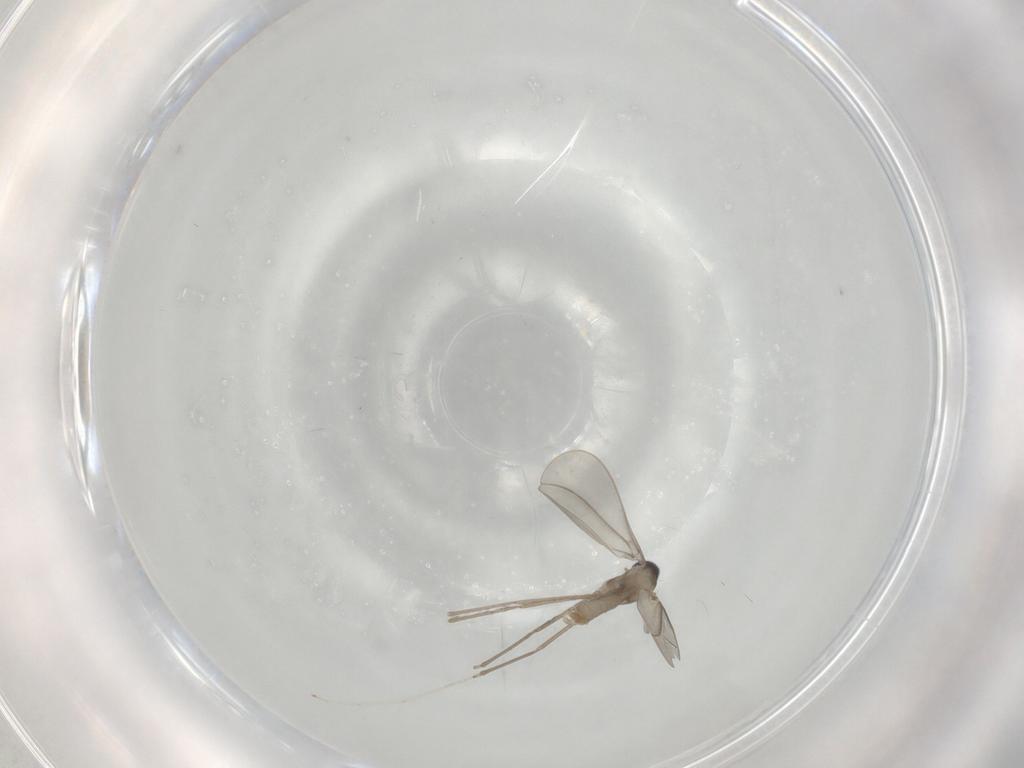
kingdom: Animalia
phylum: Arthropoda
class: Insecta
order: Diptera
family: Cecidomyiidae
